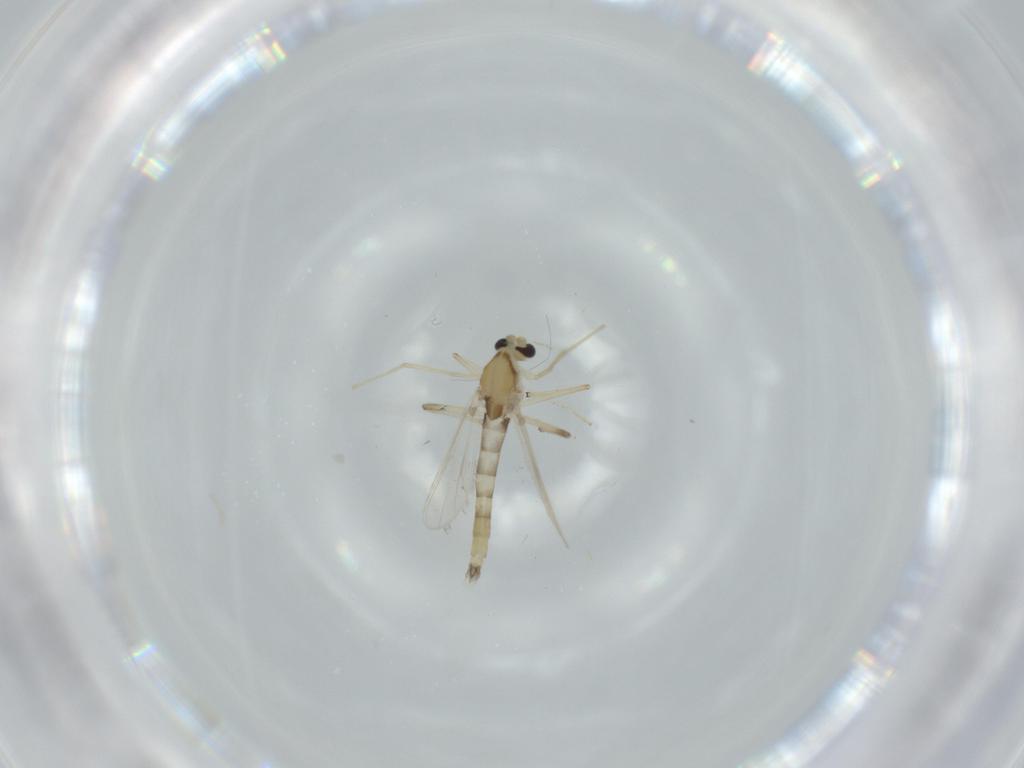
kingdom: Animalia
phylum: Arthropoda
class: Insecta
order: Diptera
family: Chironomidae
